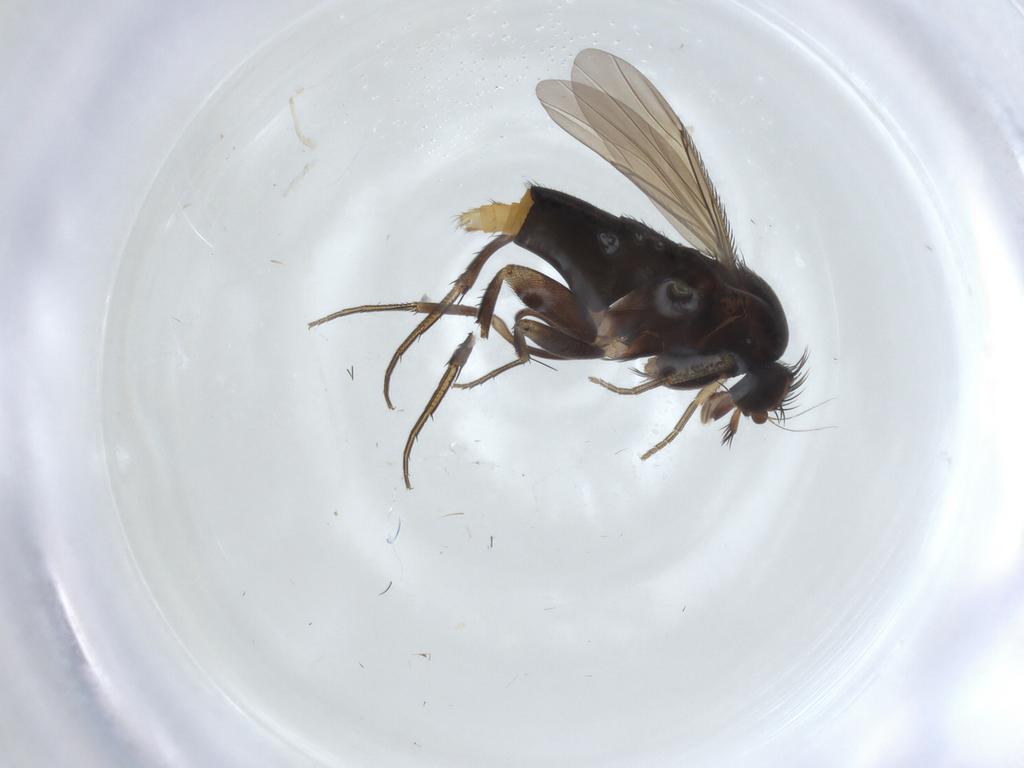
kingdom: Animalia
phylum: Arthropoda
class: Insecta
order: Diptera
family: Phoridae
